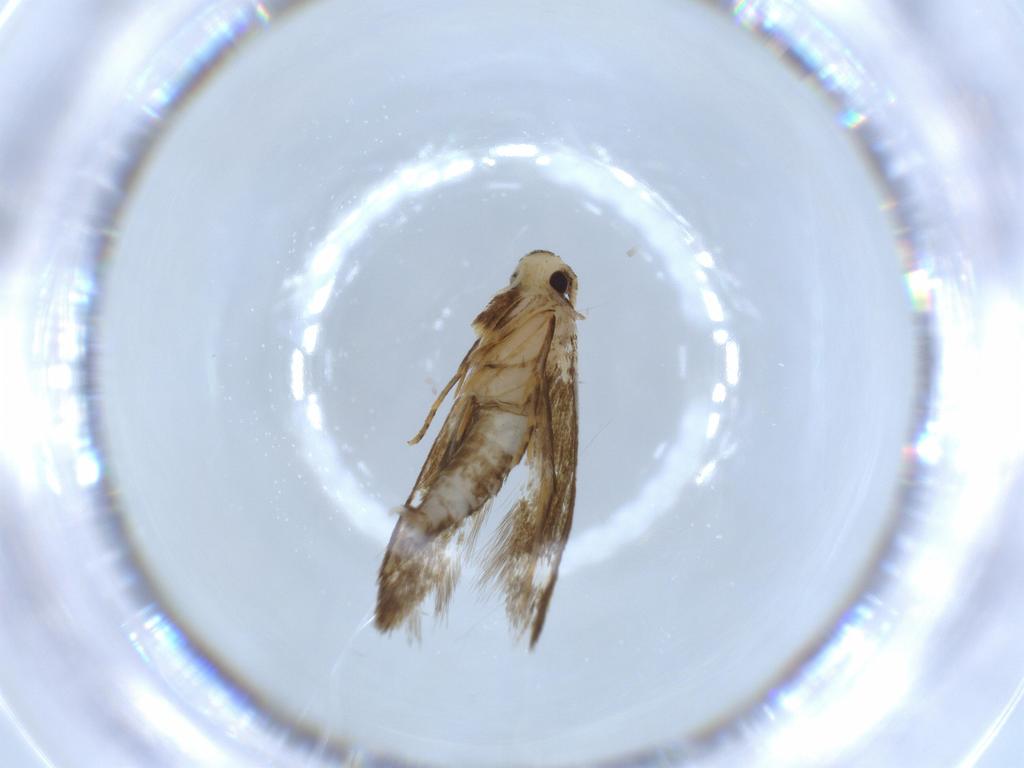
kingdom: Animalia
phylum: Arthropoda
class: Insecta
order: Lepidoptera
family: Tineidae
